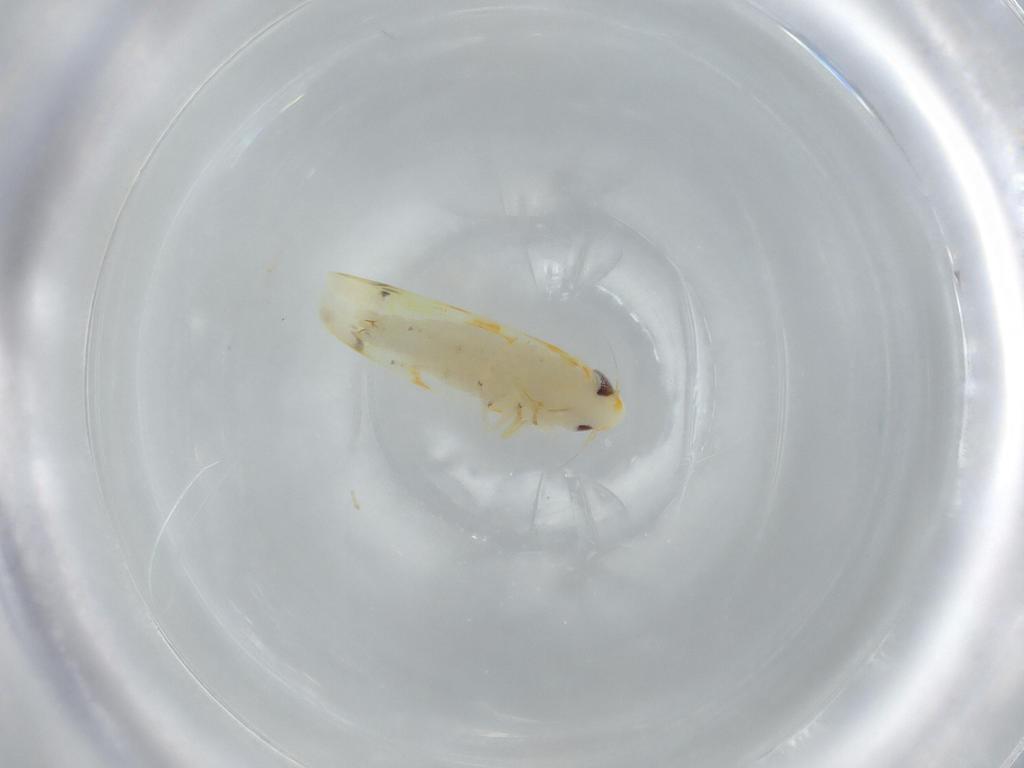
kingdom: Animalia
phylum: Arthropoda
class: Insecta
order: Hemiptera
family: Cicadellidae
